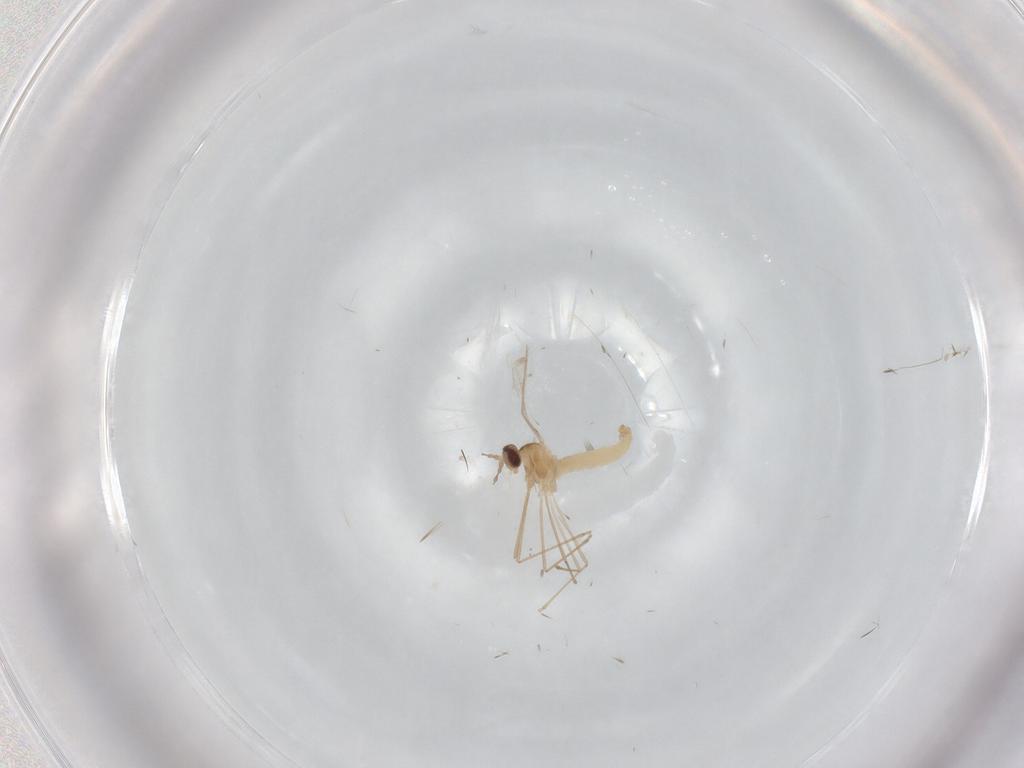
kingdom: Animalia
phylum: Arthropoda
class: Insecta
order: Diptera
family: Cecidomyiidae
